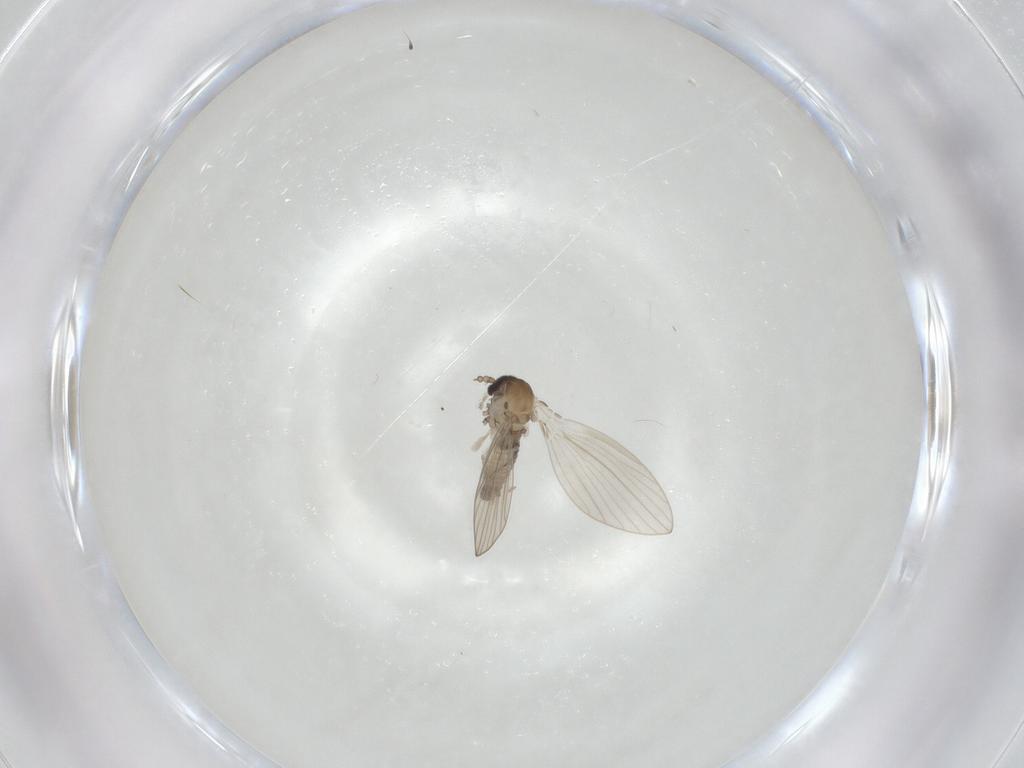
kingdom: Animalia
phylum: Arthropoda
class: Insecta
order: Diptera
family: Psychodidae
